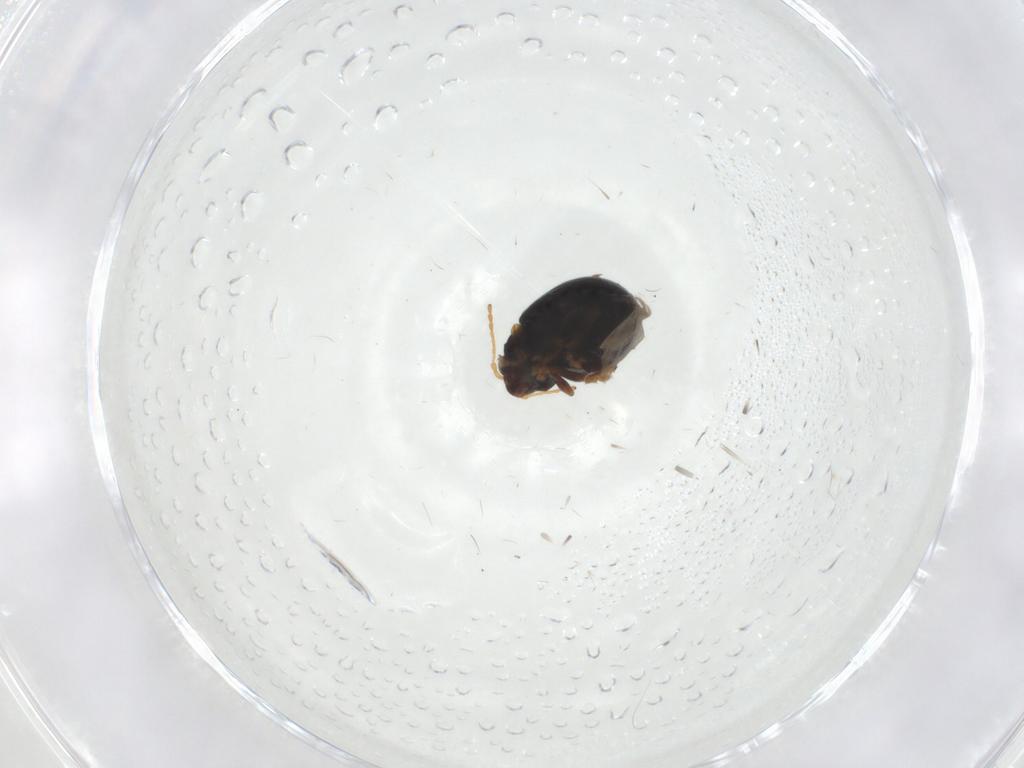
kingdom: Animalia
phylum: Arthropoda
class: Insecta
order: Coleoptera
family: Chrysomelidae
